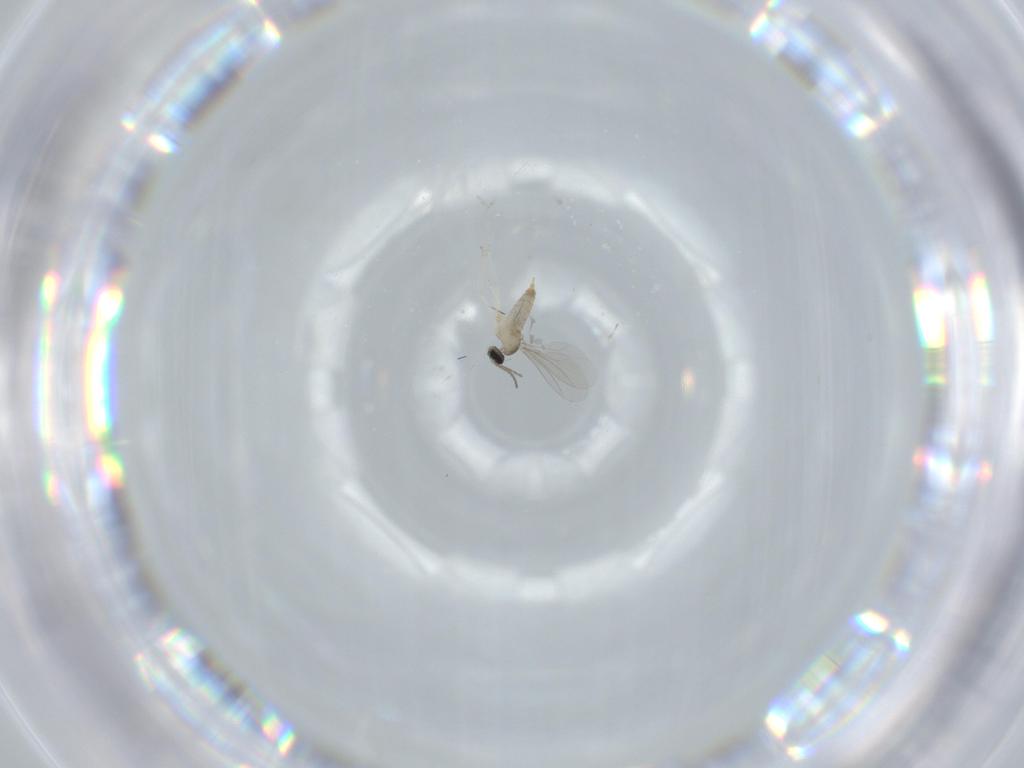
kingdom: Animalia
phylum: Arthropoda
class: Insecta
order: Diptera
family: Cecidomyiidae
